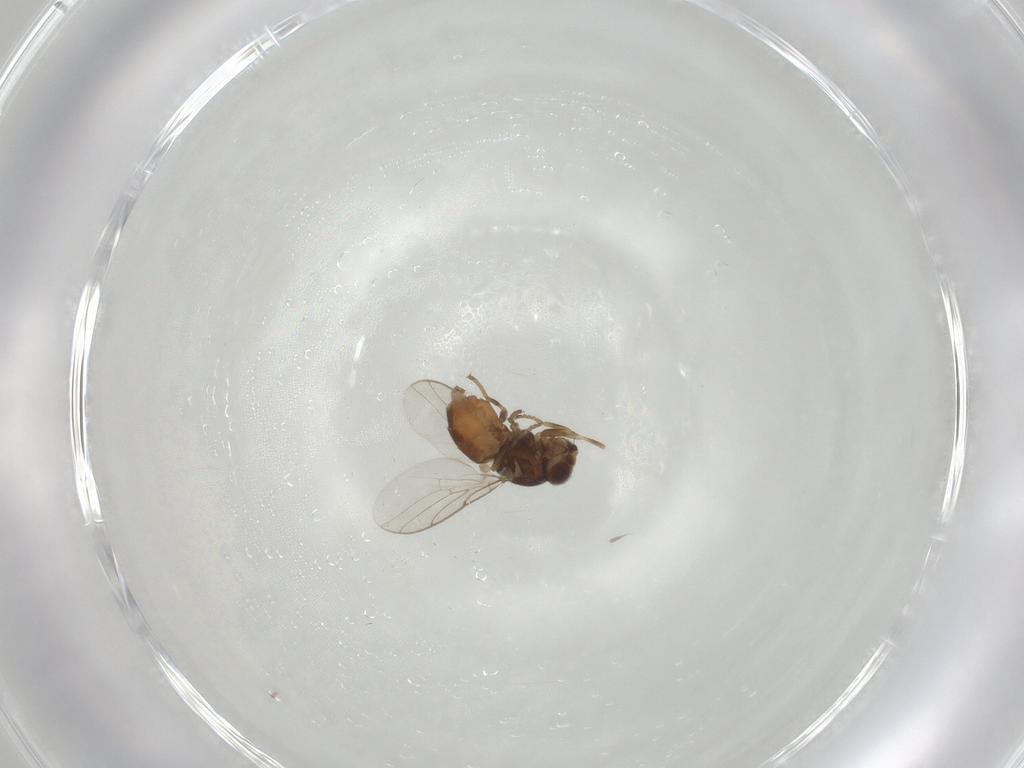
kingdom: Animalia
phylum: Arthropoda
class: Insecta
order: Diptera
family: Chloropidae
